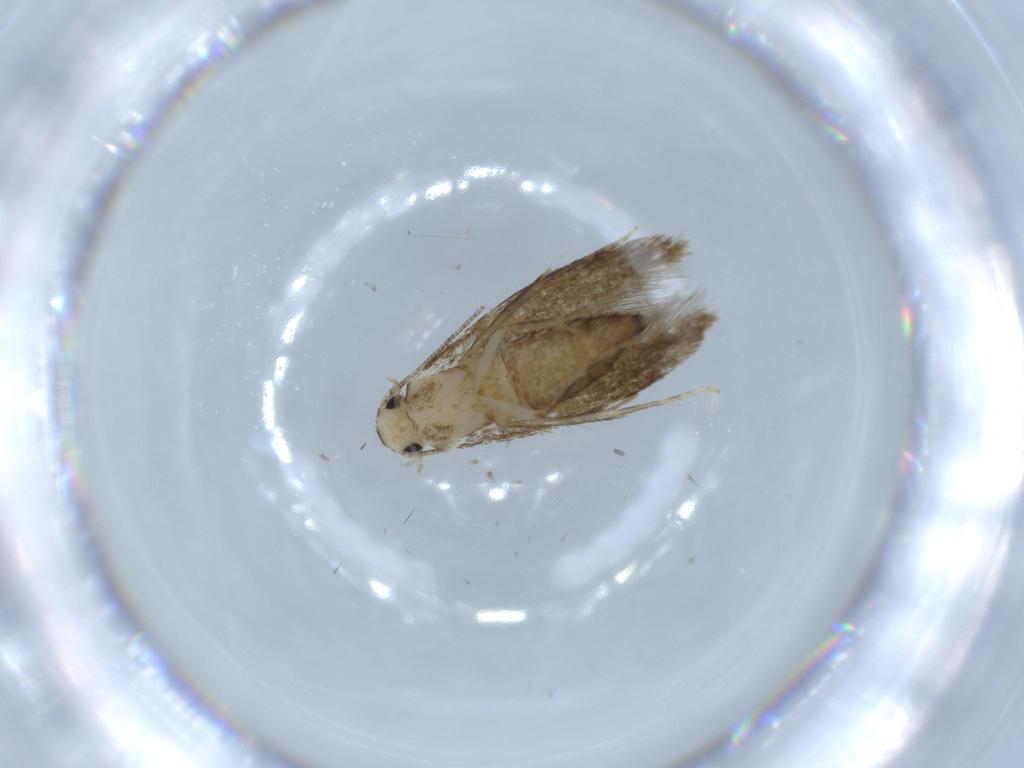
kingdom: Animalia
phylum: Arthropoda
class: Insecta
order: Lepidoptera
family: Tineidae
